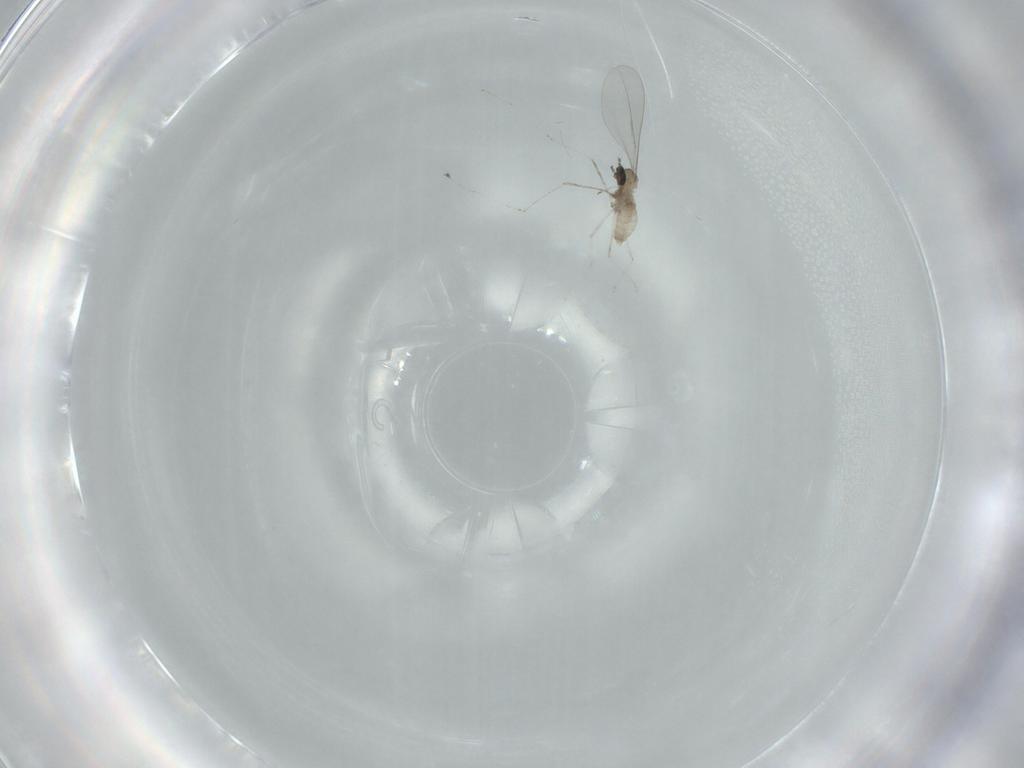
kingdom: Animalia
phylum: Arthropoda
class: Insecta
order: Diptera
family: Cecidomyiidae
